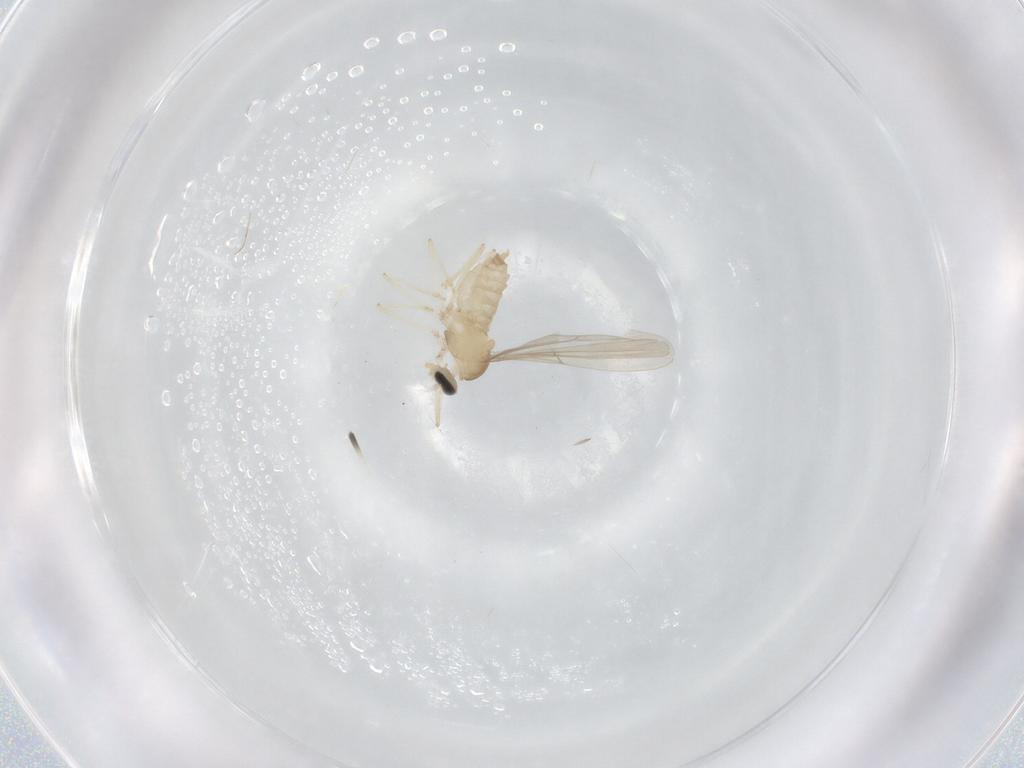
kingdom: Animalia
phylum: Arthropoda
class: Insecta
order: Diptera
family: Cecidomyiidae
